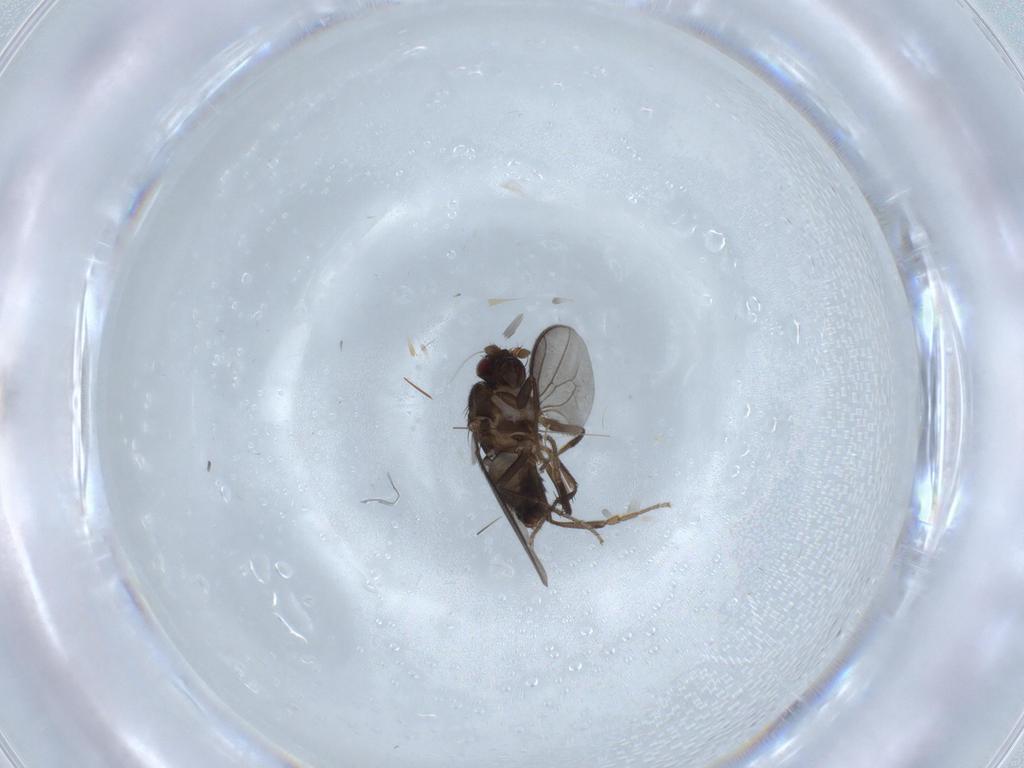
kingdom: Animalia
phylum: Arthropoda
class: Insecta
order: Diptera
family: Sphaeroceridae
